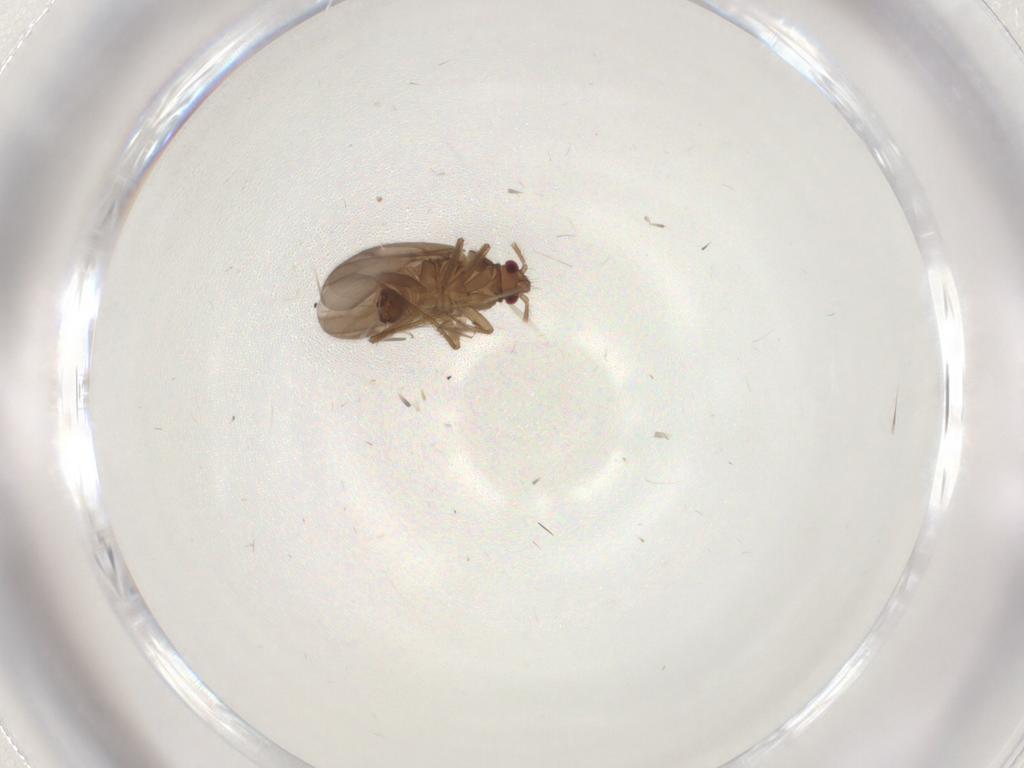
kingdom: Animalia
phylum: Arthropoda
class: Insecta
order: Hemiptera
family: Ceratocombidae
